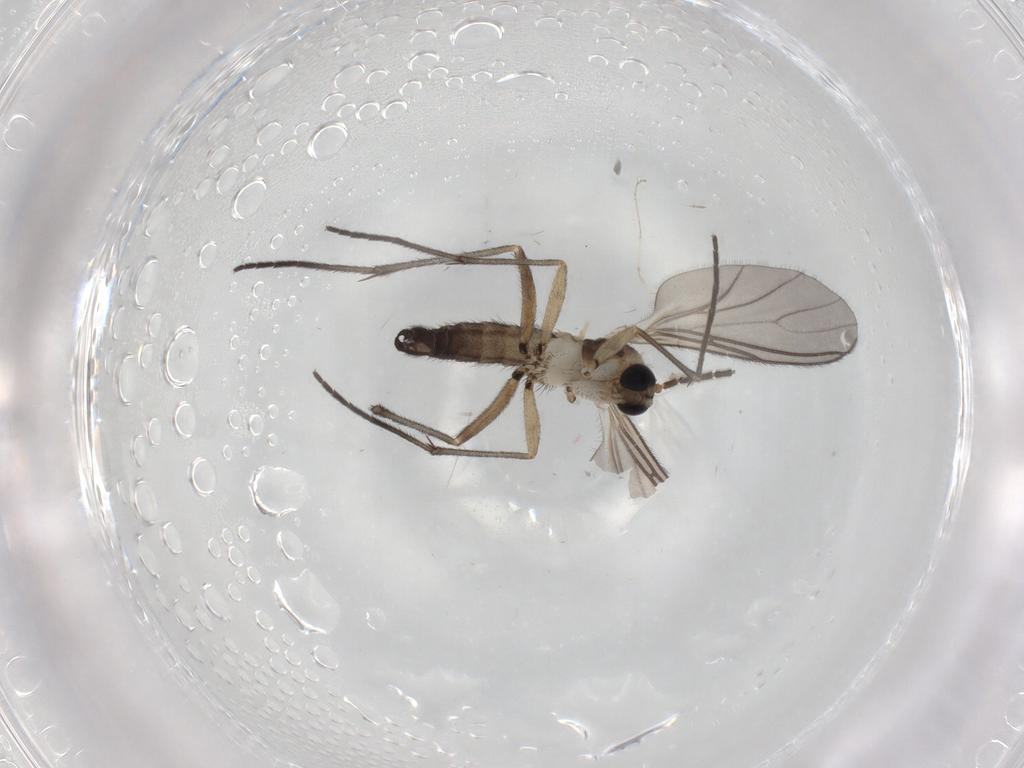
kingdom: Animalia
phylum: Arthropoda
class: Insecta
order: Diptera
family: Sciaridae
